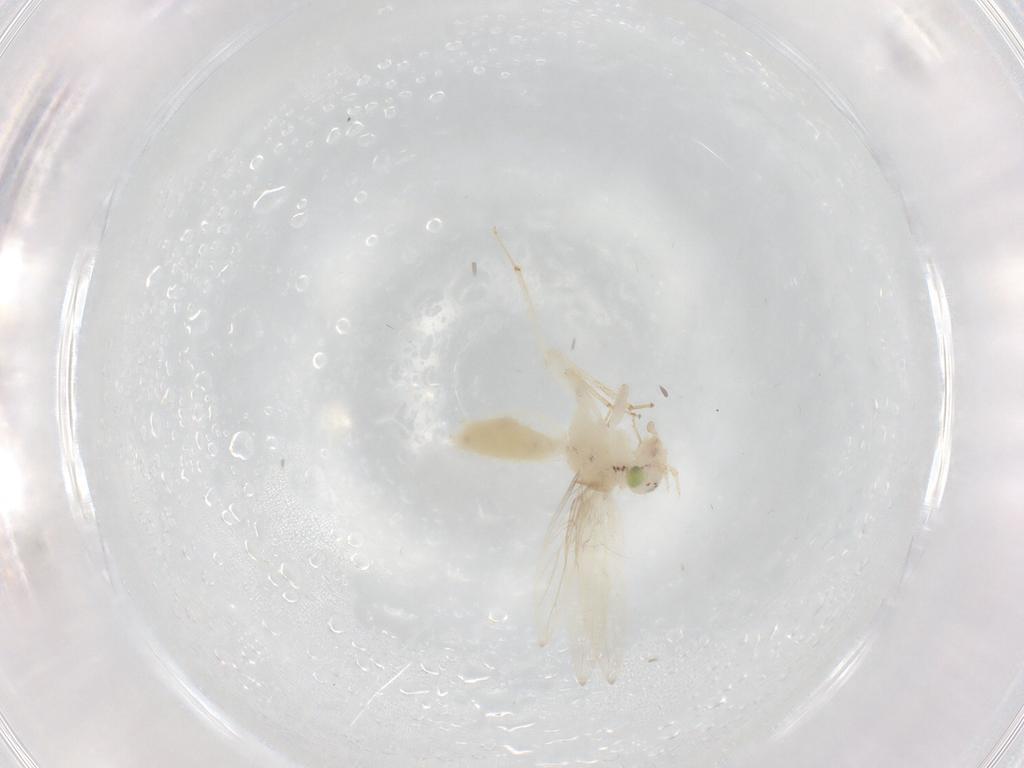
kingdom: Animalia
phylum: Arthropoda
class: Insecta
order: Psocodea
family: Lepidopsocidae
